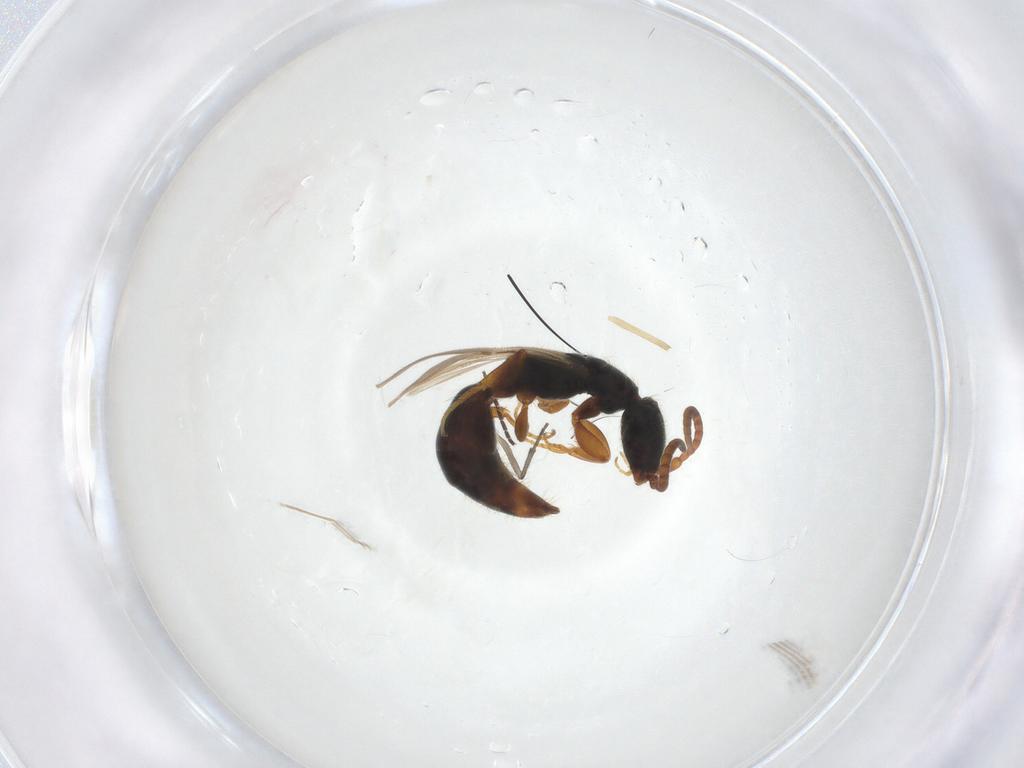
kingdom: Animalia
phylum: Arthropoda
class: Insecta
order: Hymenoptera
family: Bethylidae
